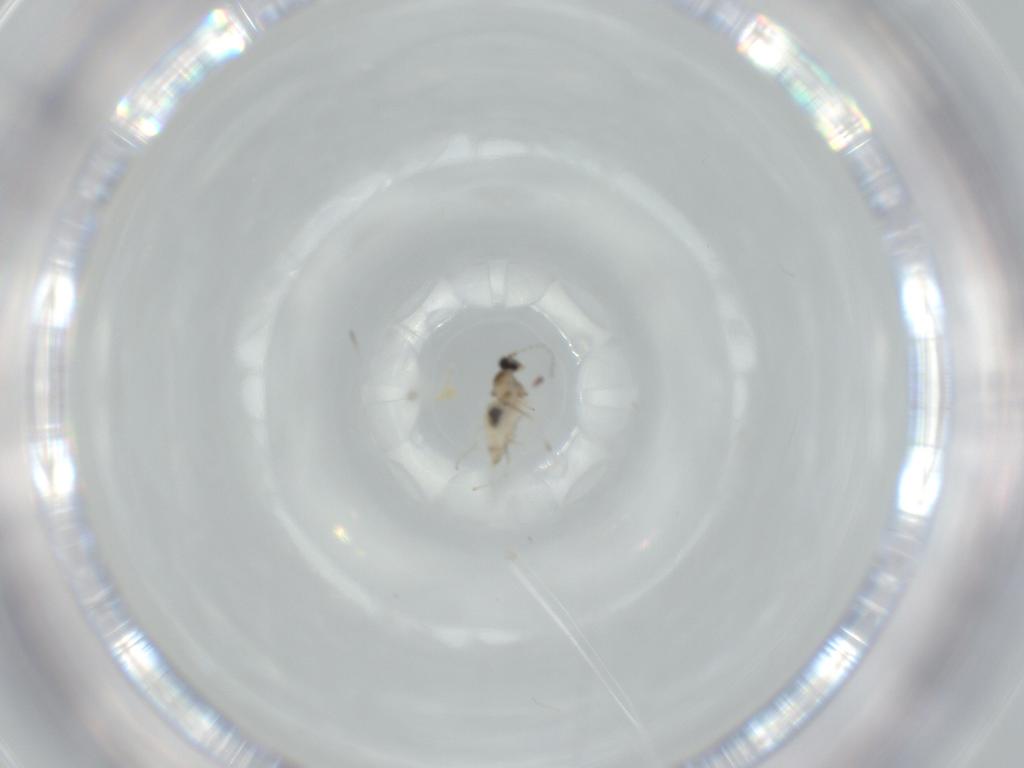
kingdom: Animalia
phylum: Arthropoda
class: Insecta
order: Diptera
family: Cecidomyiidae
